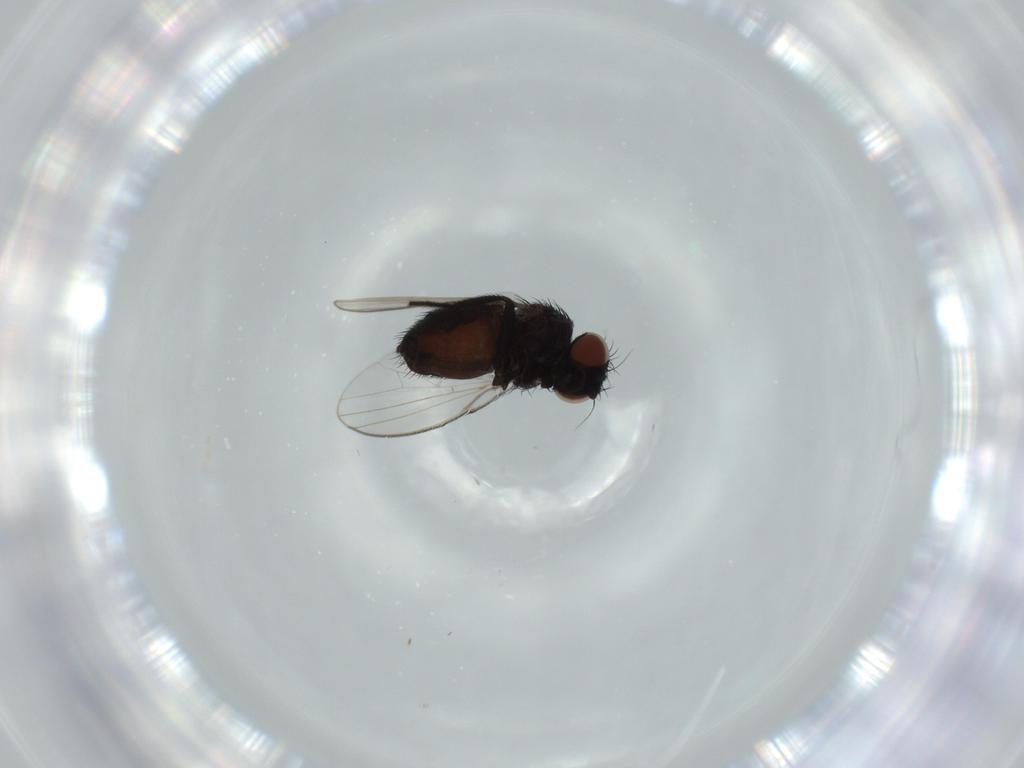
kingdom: Animalia
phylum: Arthropoda
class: Insecta
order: Diptera
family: Milichiidae
